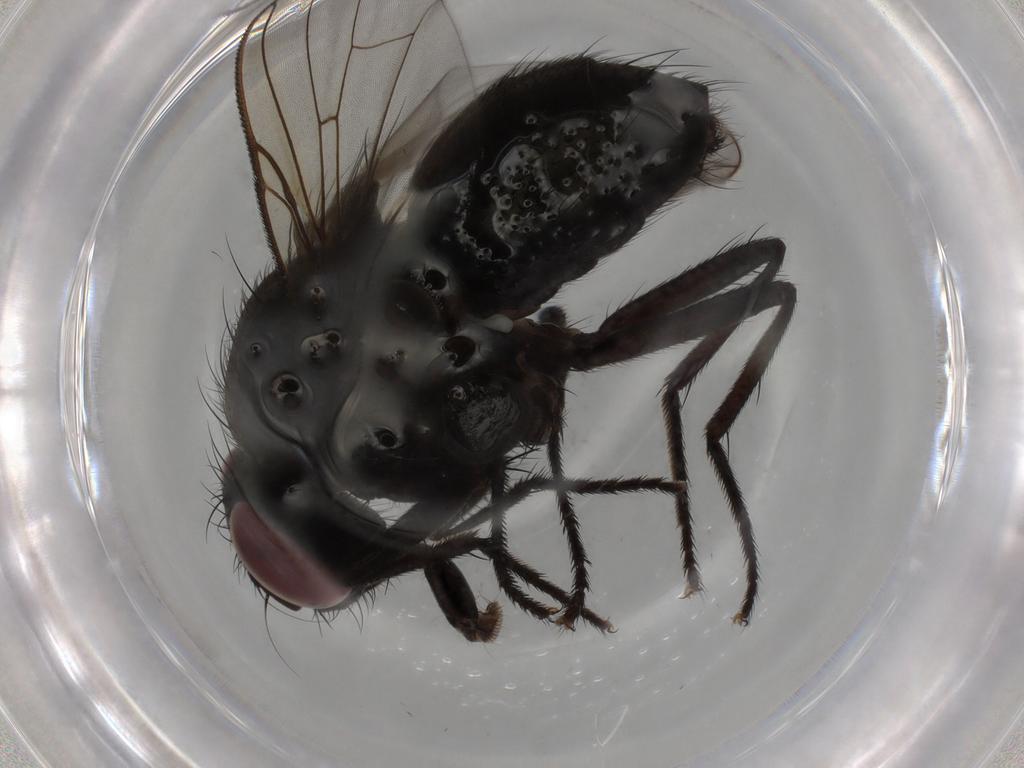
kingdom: Animalia
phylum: Arthropoda
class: Insecta
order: Diptera
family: Muscidae
